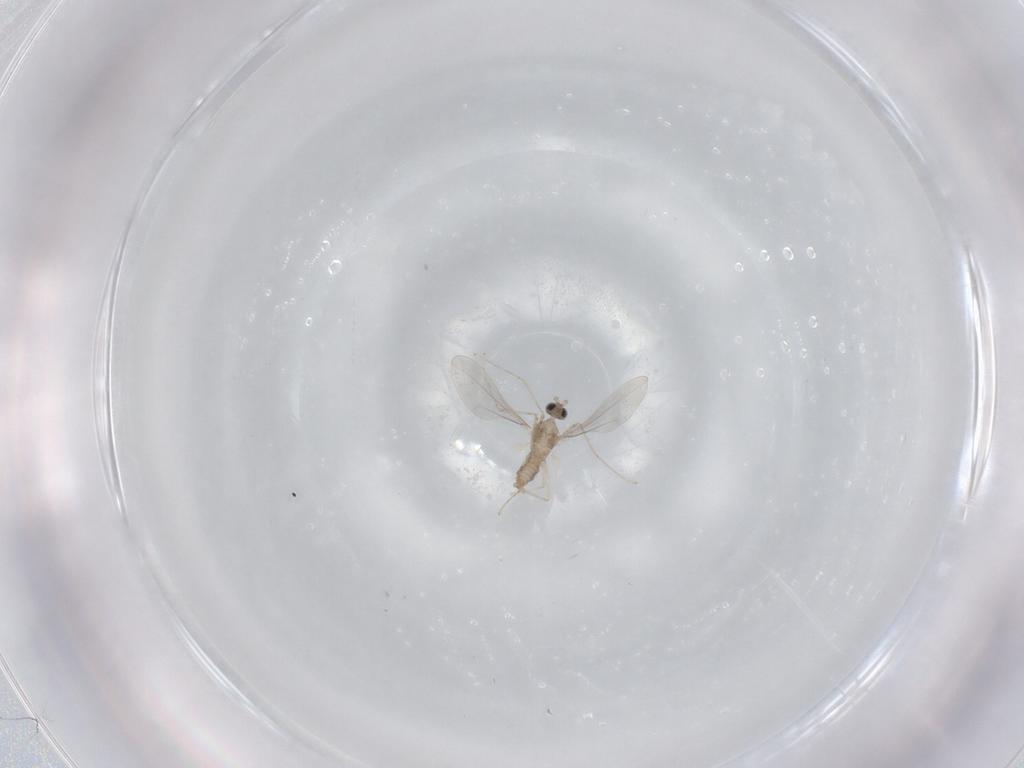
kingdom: Animalia
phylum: Arthropoda
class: Insecta
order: Diptera
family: Cecidomyiidae
